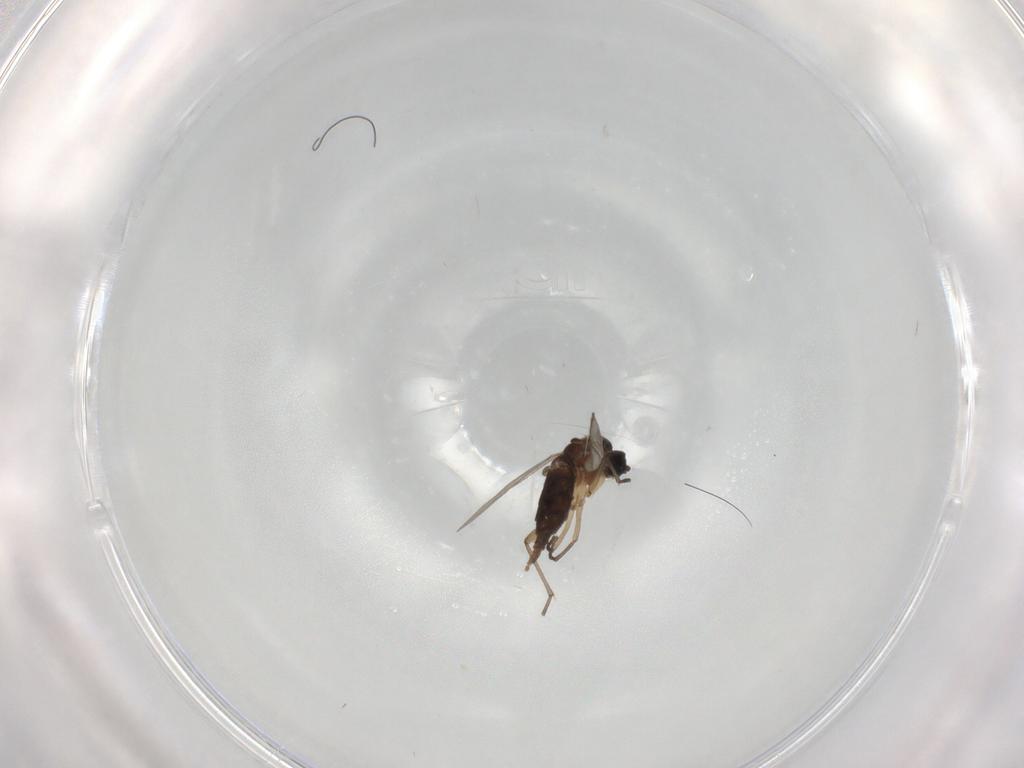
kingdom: Animalia
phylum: Arthropoda
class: Insecta
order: Diptera
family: Pipunculidae
